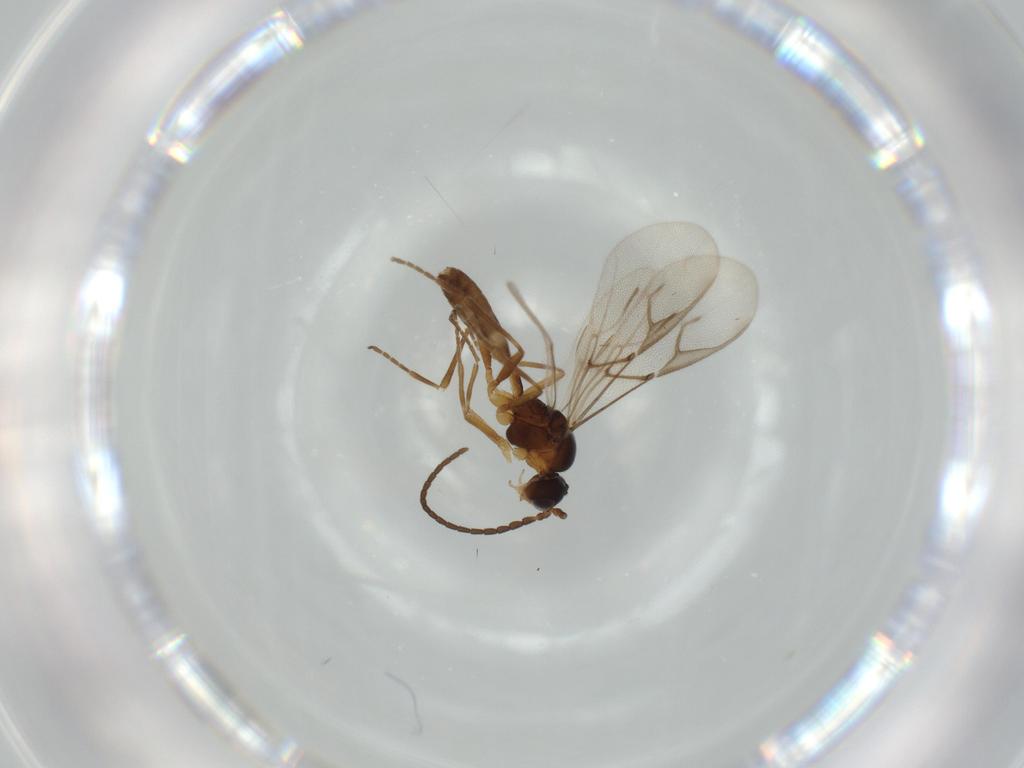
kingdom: Animalia
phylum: Arthropoda
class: Insecta
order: Hymenoptera
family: Braconidae
